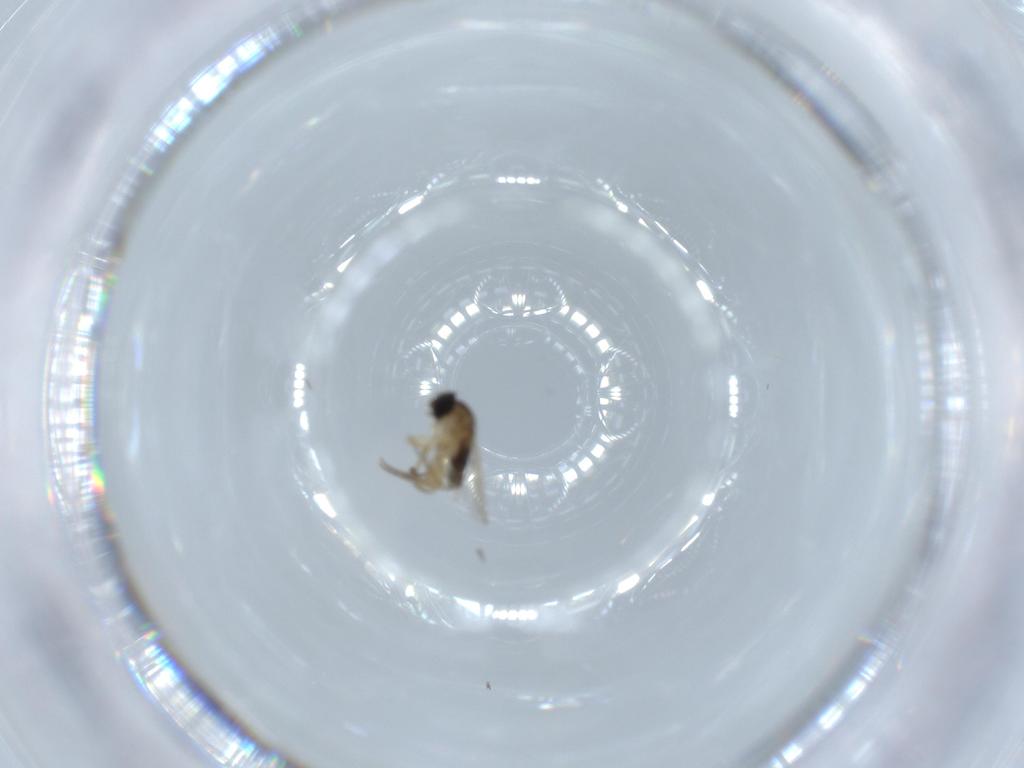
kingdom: Animalia
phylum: Arthropoda
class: Insecta
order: Diptera
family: Phoridae
